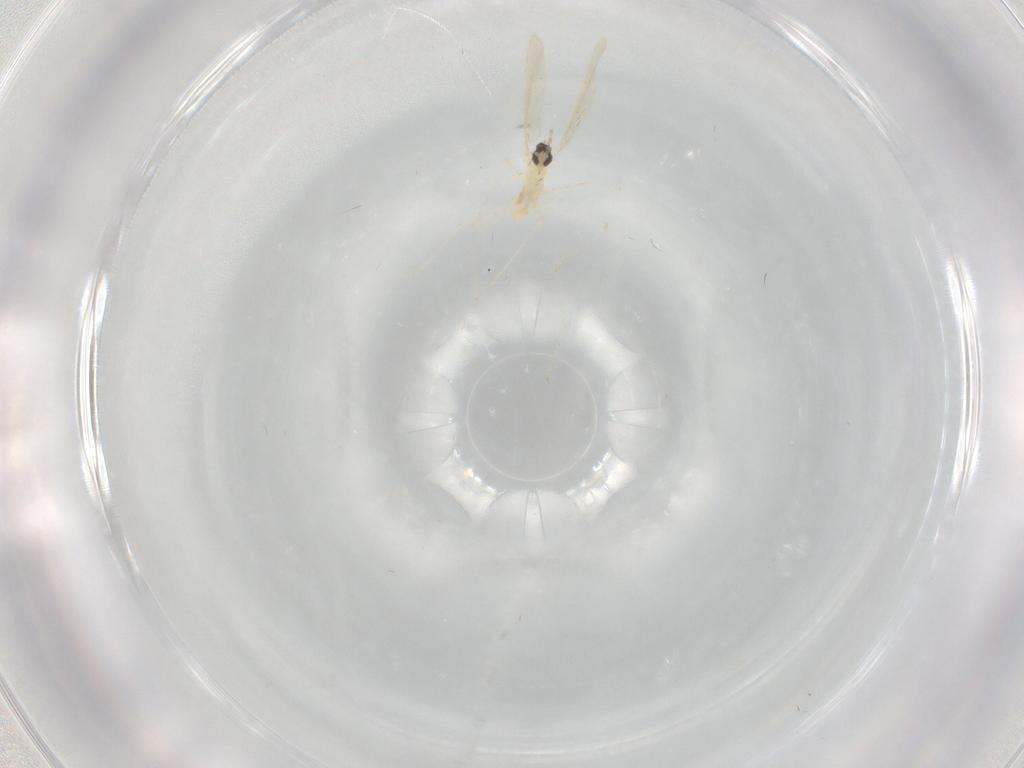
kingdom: Animalia
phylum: Arthropoda
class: Insecta
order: Diptera
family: Cecidomyiidae
